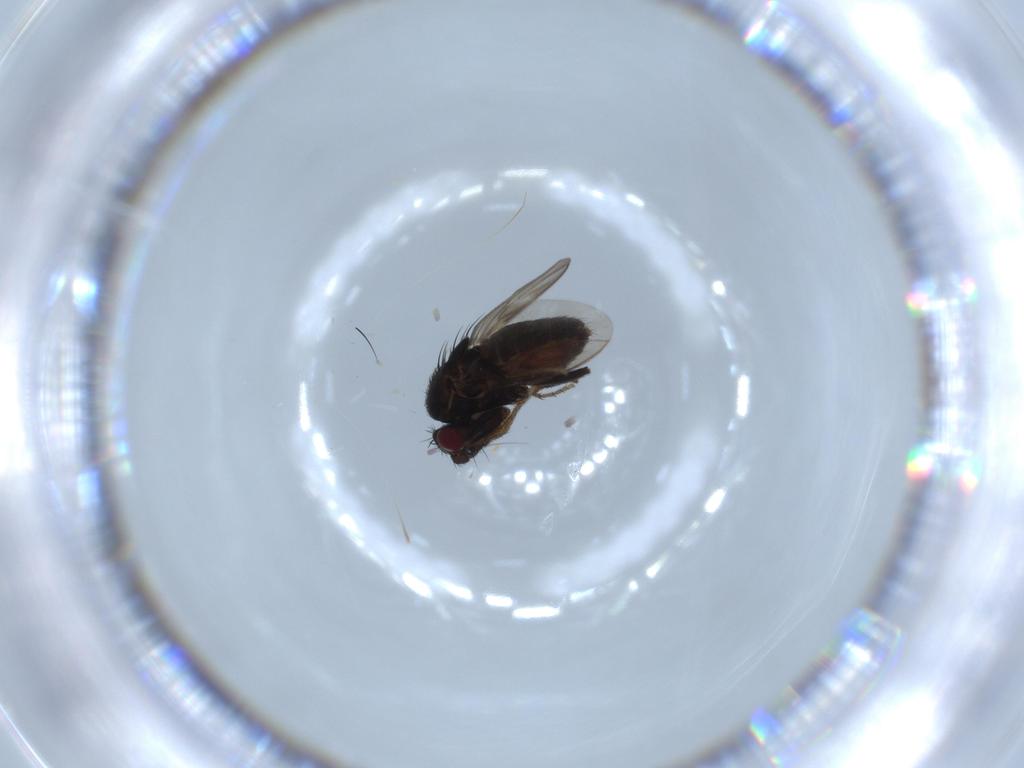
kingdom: Animalia
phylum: Arthropoda
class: Insecta
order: Diptera
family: Sphaeroceridae
